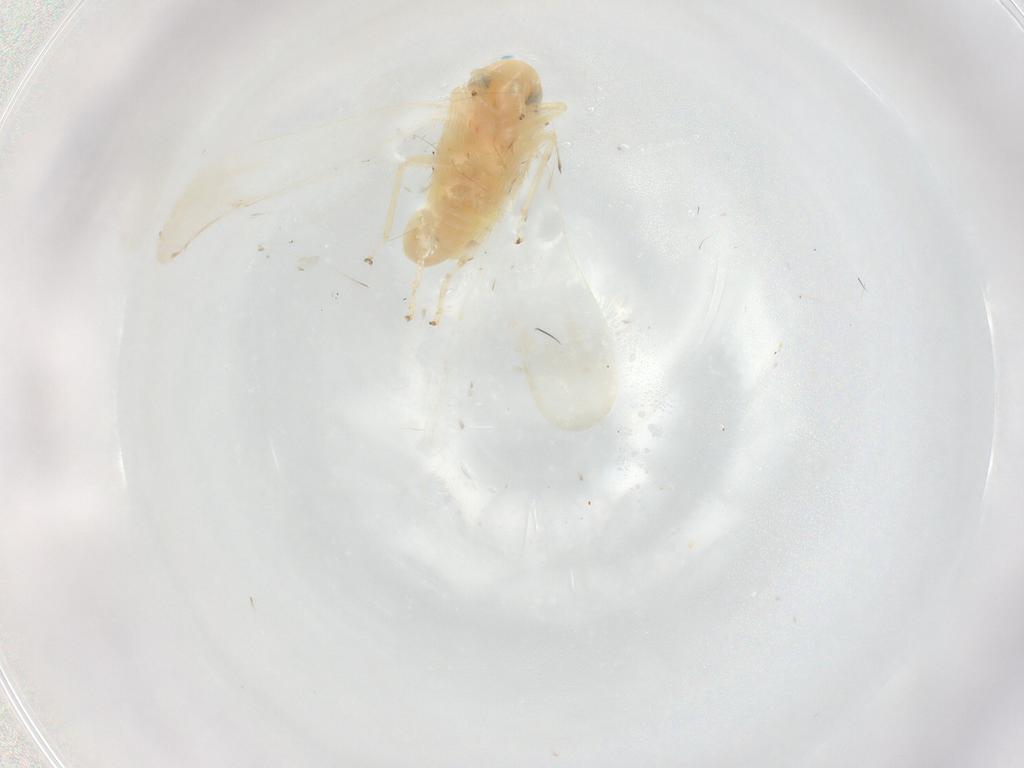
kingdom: Animalia
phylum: Arthropoda
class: Insecta
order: Hemiptera
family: Cicadellidae
